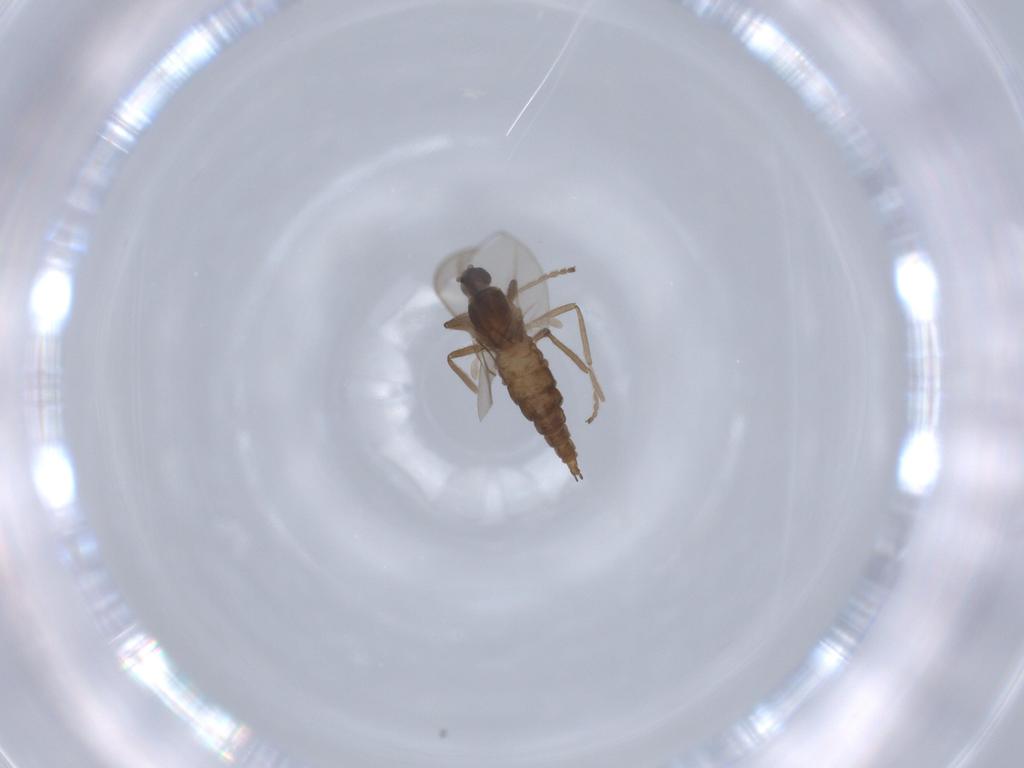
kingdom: Animalia
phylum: Arthropoda
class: Insecta
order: Diptera
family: Cecidomyiidae
